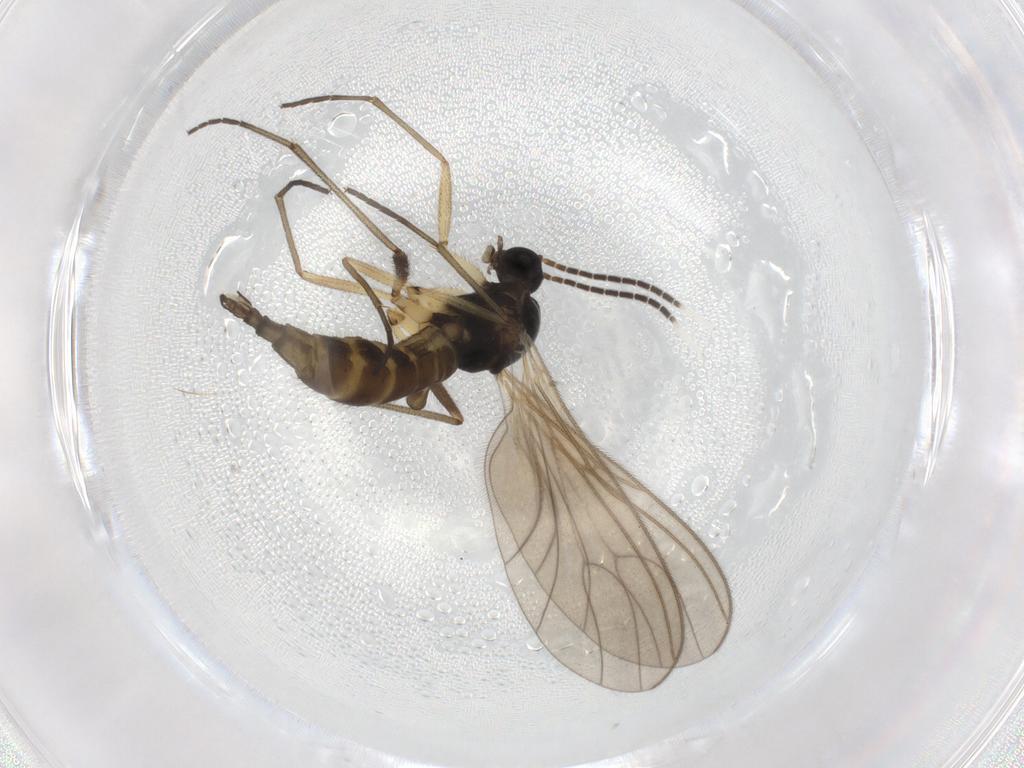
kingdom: Animalia
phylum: Arthropoda
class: Insecta
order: Diptera
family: Sciaridae
